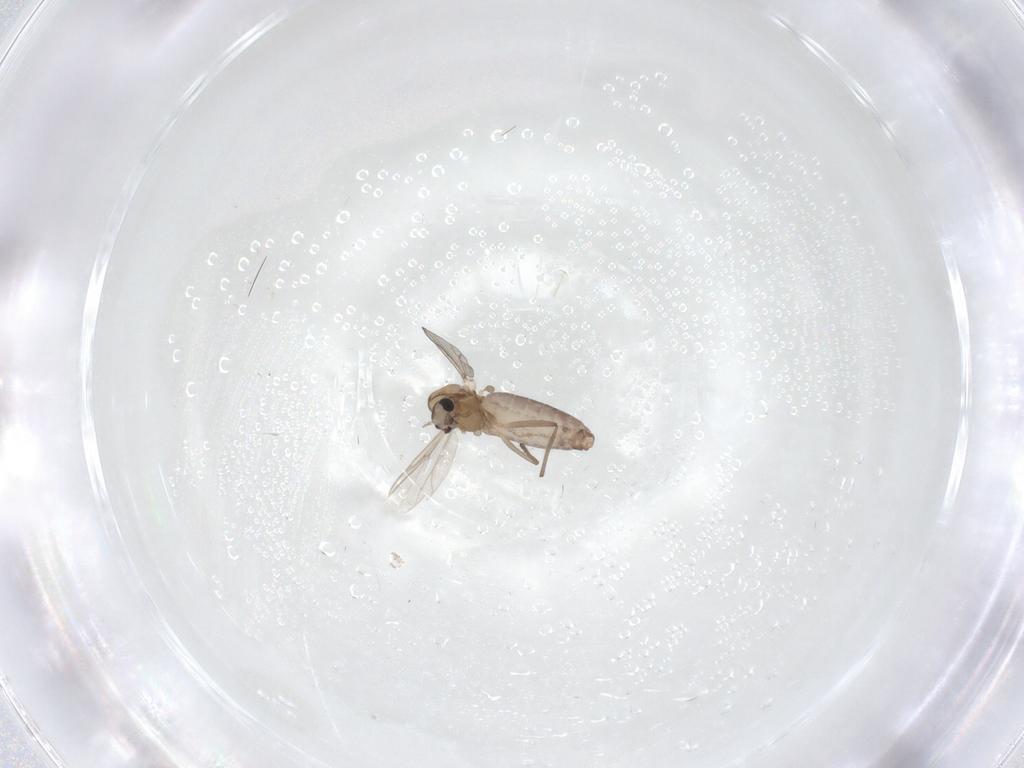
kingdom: Animalia
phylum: Arthropoda
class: Insecta
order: Diptera
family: Chironomidae
